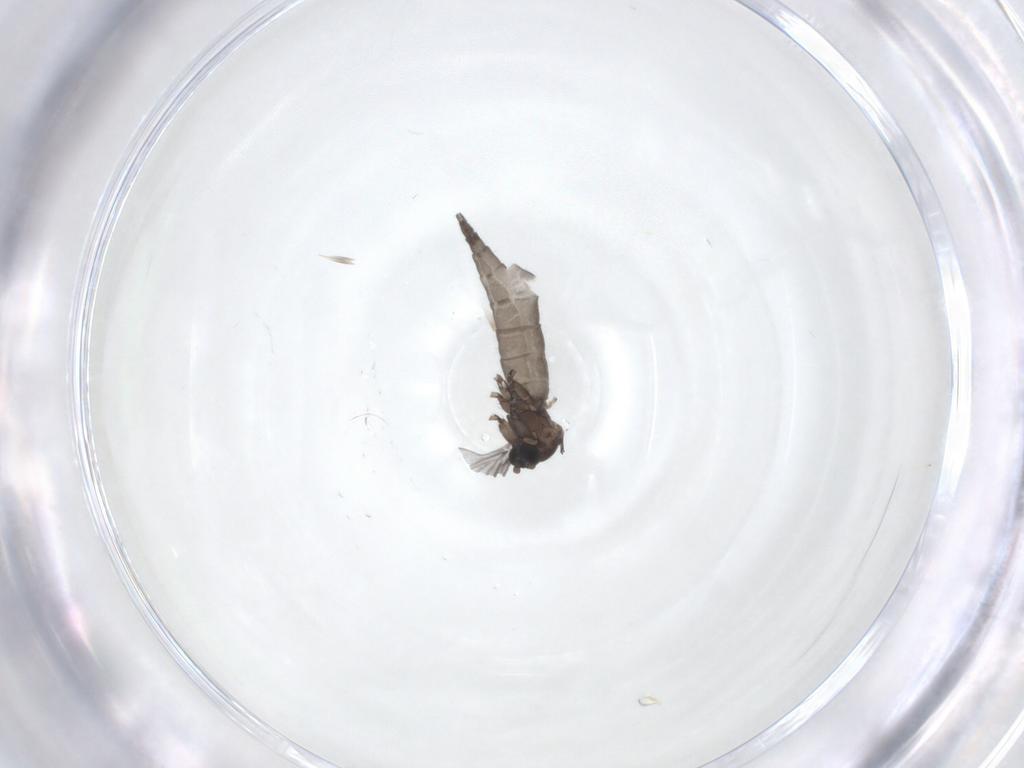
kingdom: Animalia
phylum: Arthropoda
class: Insecta
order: Diptera
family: Sciaridae
